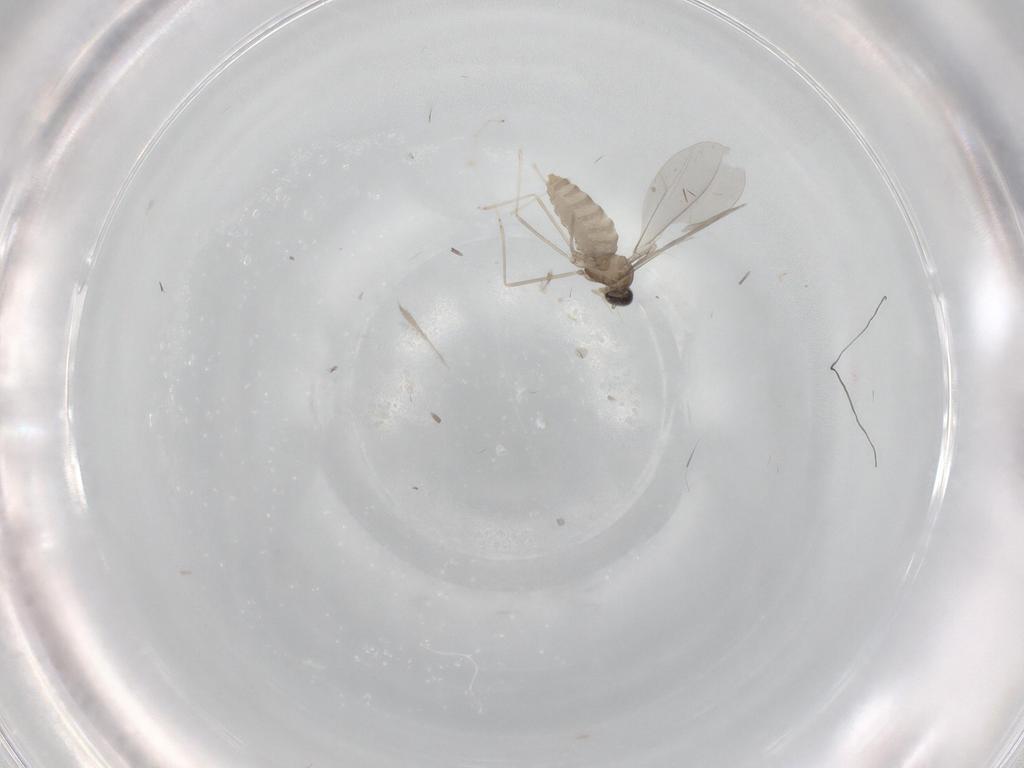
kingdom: Animalia
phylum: Arthropoda
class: Insecta
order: Diptera
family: Cecidomyiidae
